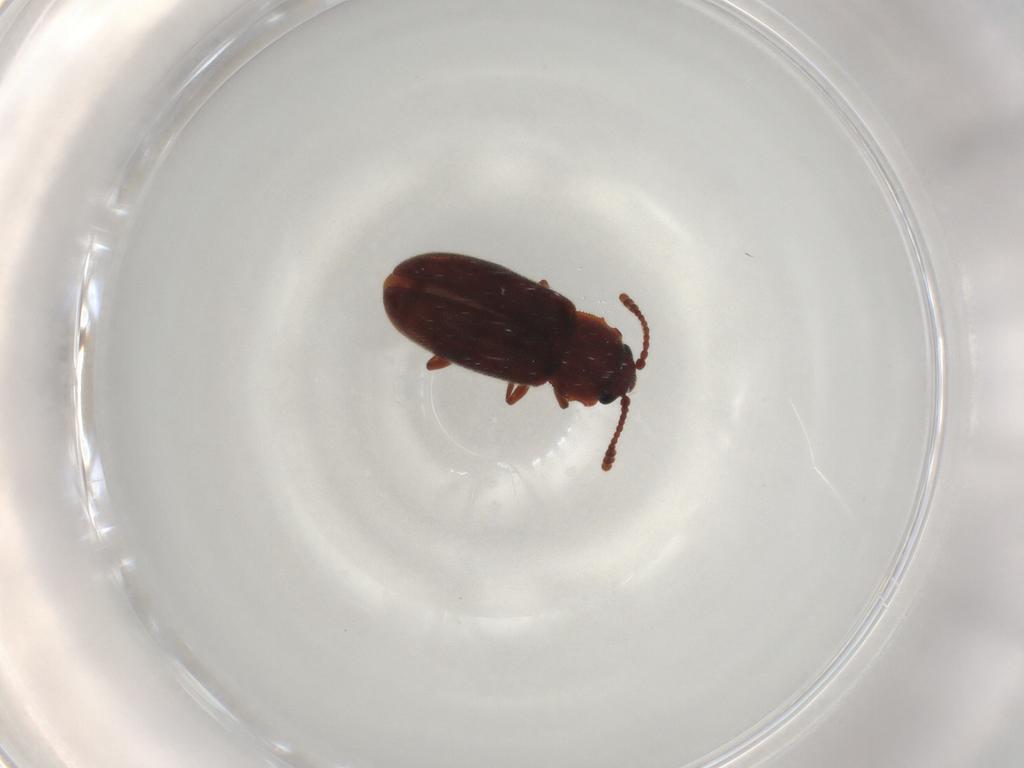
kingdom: Animalia
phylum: Arthropoda
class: Insecta
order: Coleoptera
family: Cryptophagidae
